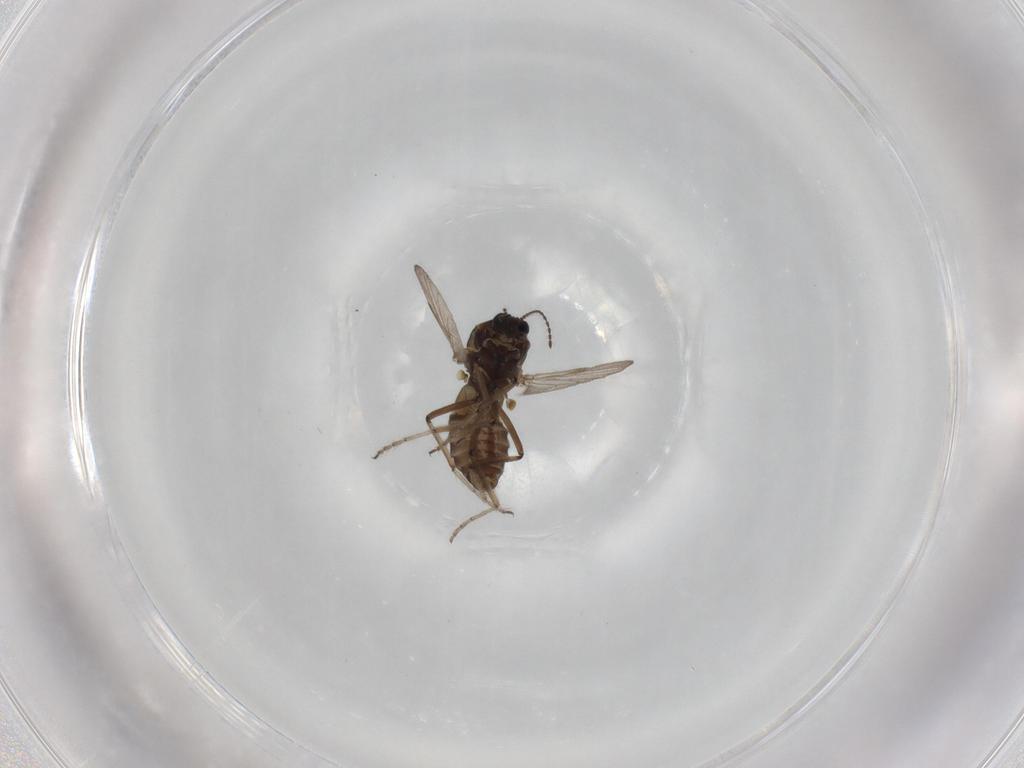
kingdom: Animalia
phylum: Arthropoda
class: Insecta
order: Diptera
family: Chironomidae
